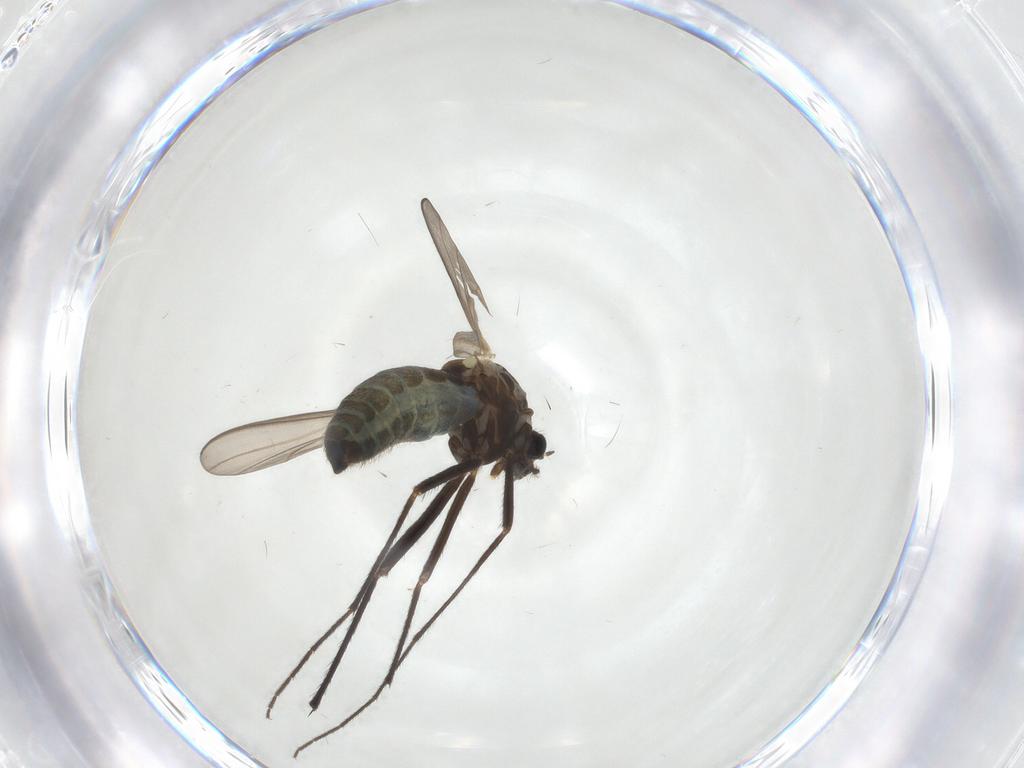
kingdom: Animalia
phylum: Arthropoda
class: Insecta
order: Diptera
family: Chironomidae
